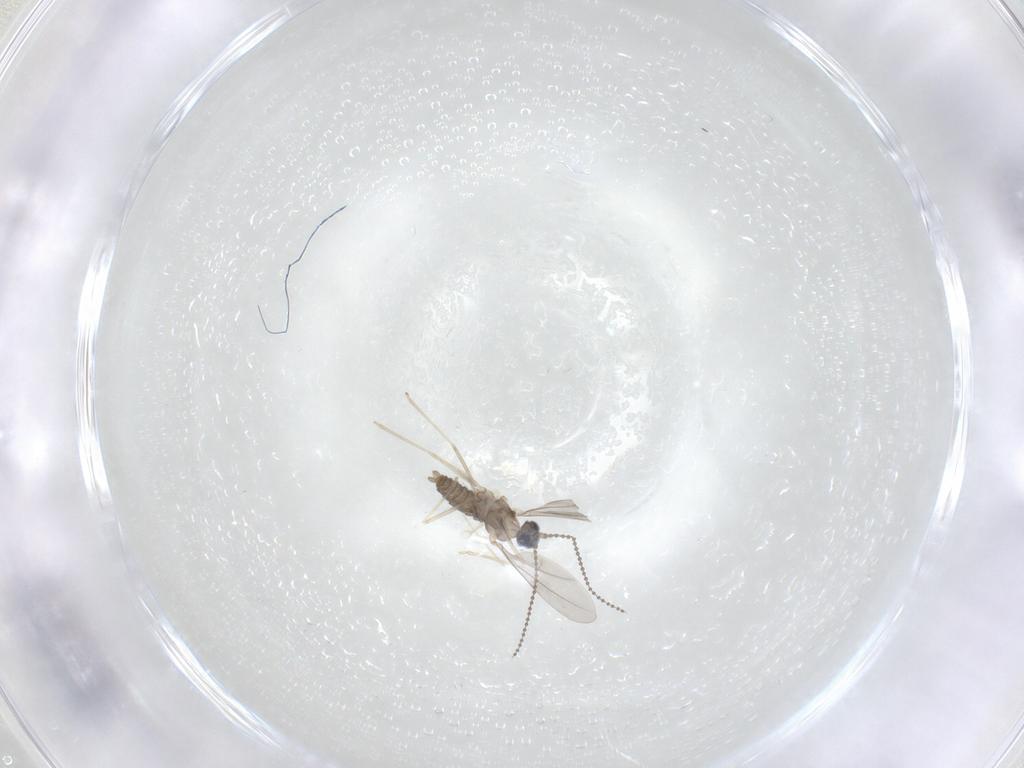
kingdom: Animalia
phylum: Arthropoda
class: Insecta
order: Diptera
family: Cecidomyiidae
